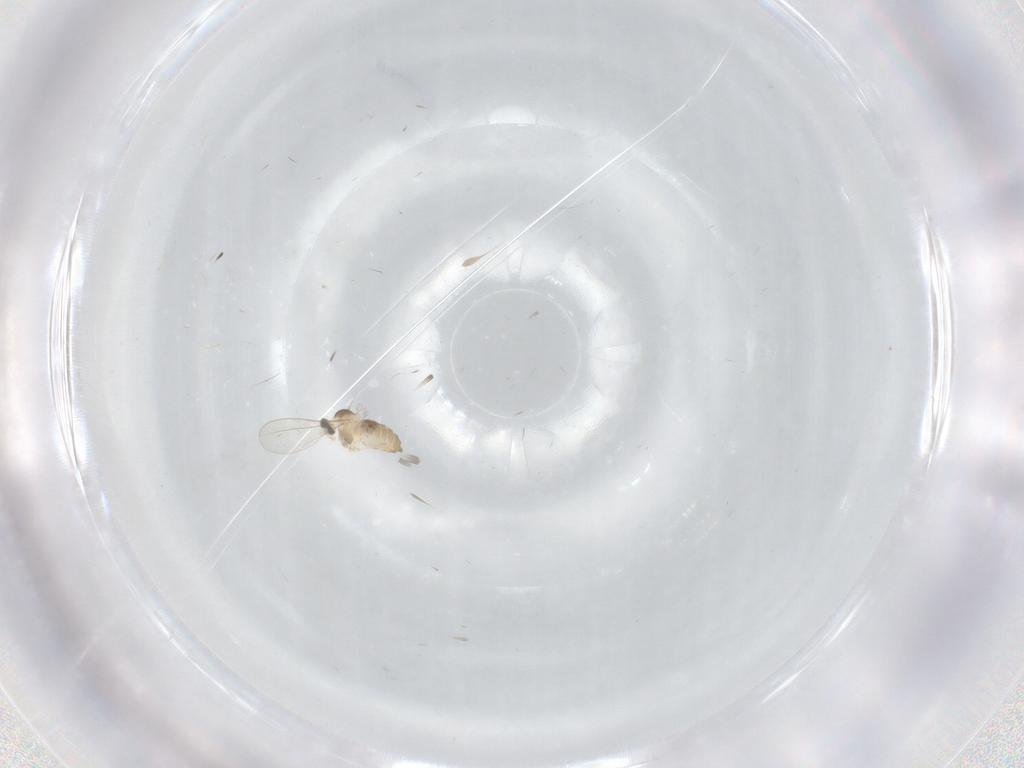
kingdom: Animalia
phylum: Arthropoda
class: Insecta
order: Diptera
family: Cecidomyiidae
